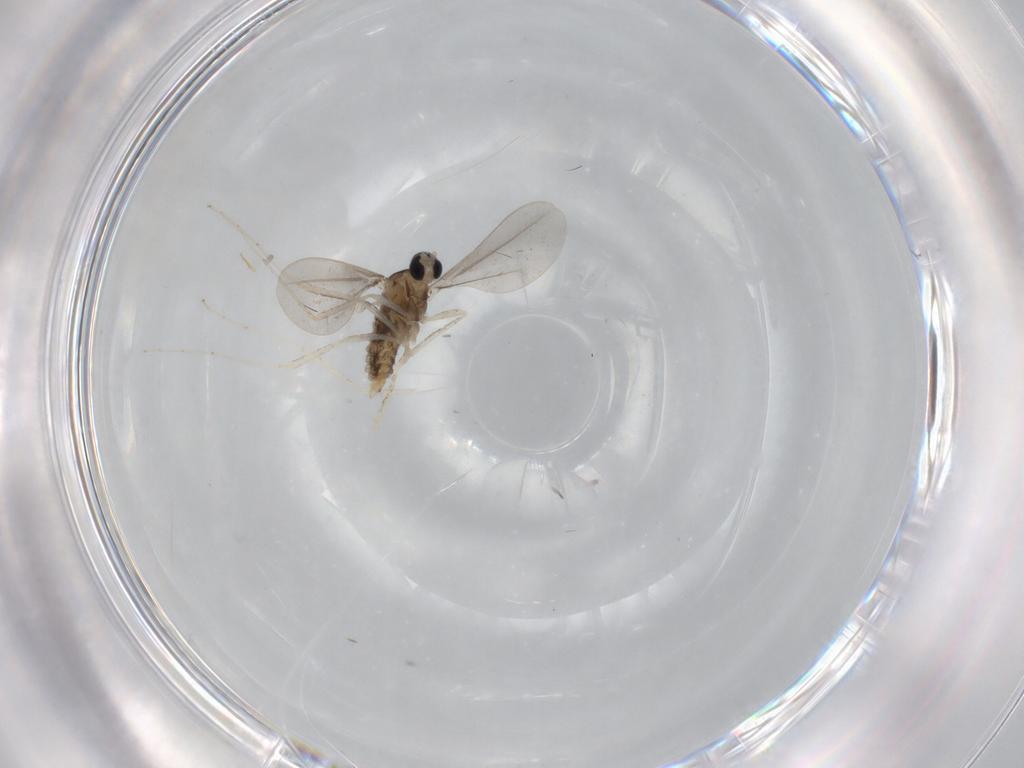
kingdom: Animalia
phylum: Arthropoda
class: Insecta
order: Diptera
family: Cecidomyiidae
